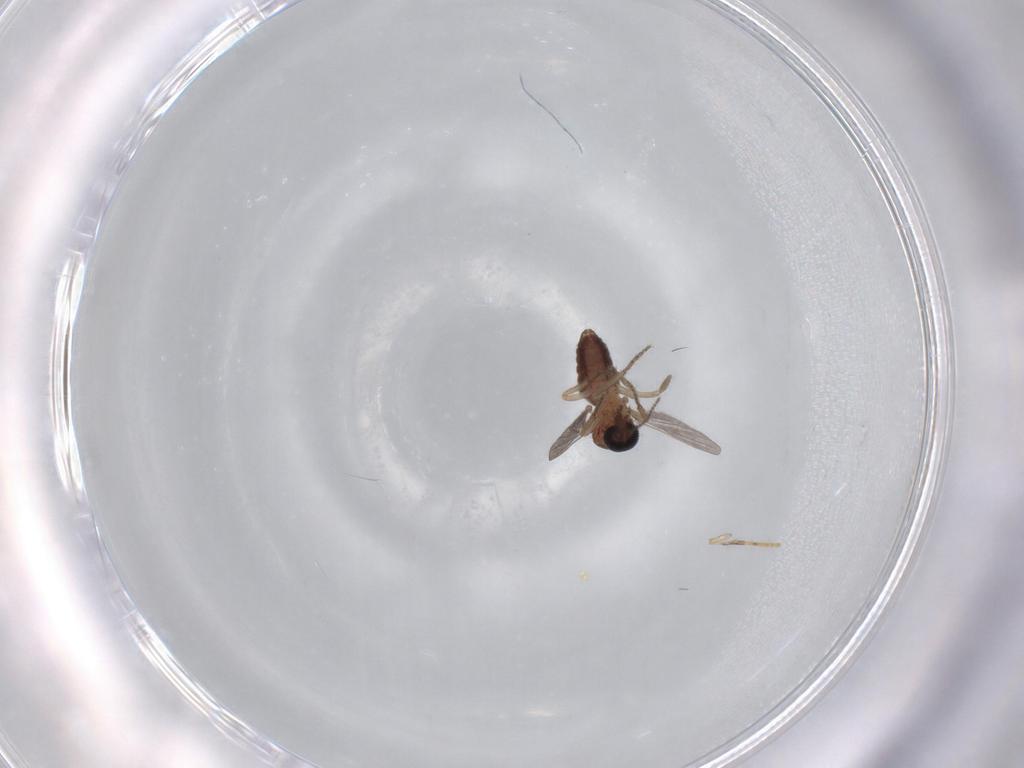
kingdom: Animalia
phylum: Arthropoda
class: Insecta
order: Diptera
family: Psychodidae
